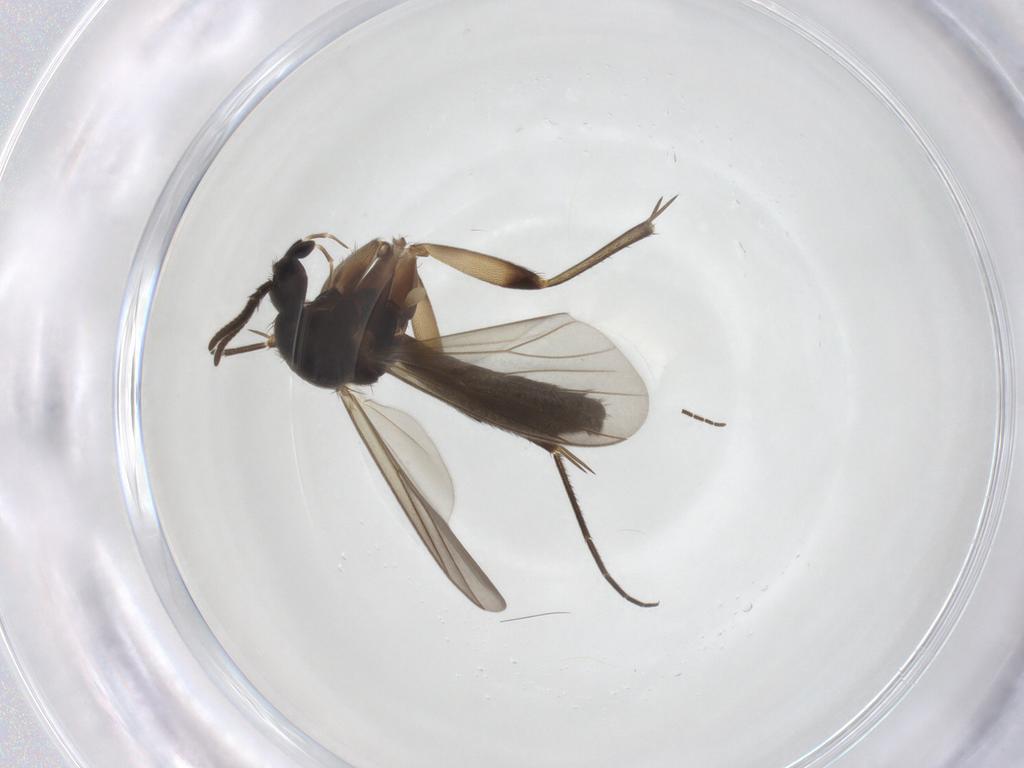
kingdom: Animalia
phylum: Arthropoda
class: Insecta
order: Diptera
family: Mycetophilidae
